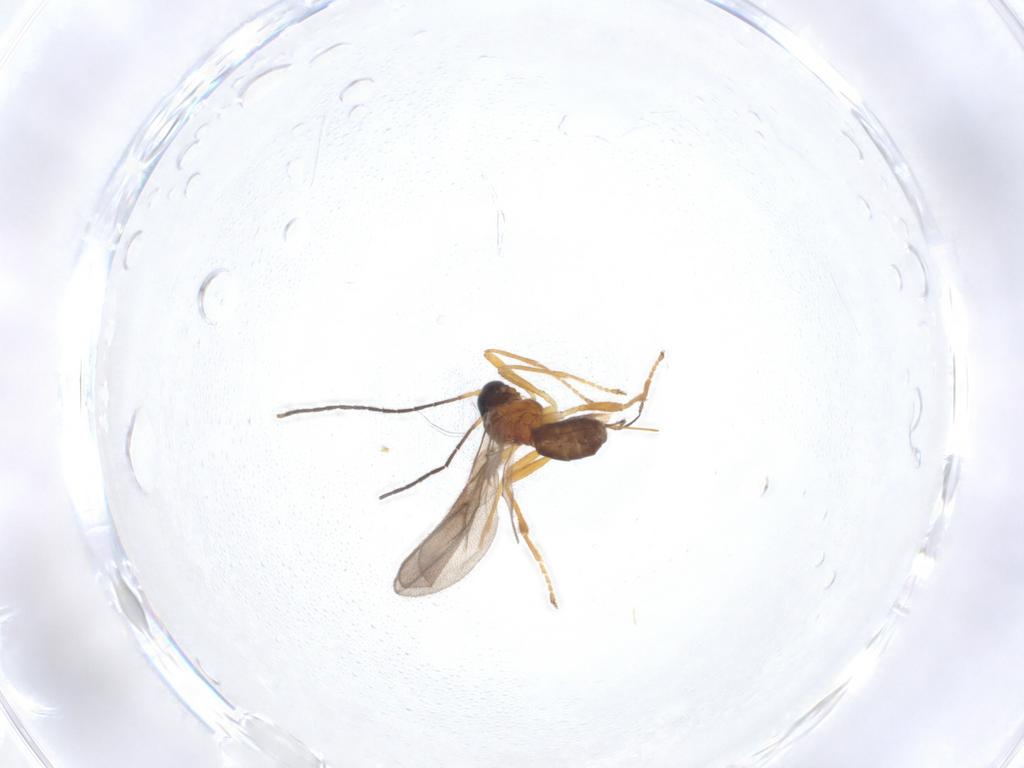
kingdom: Animalia
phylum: Arthropoda
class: Insecta
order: Hymenoptera
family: Braconidae
